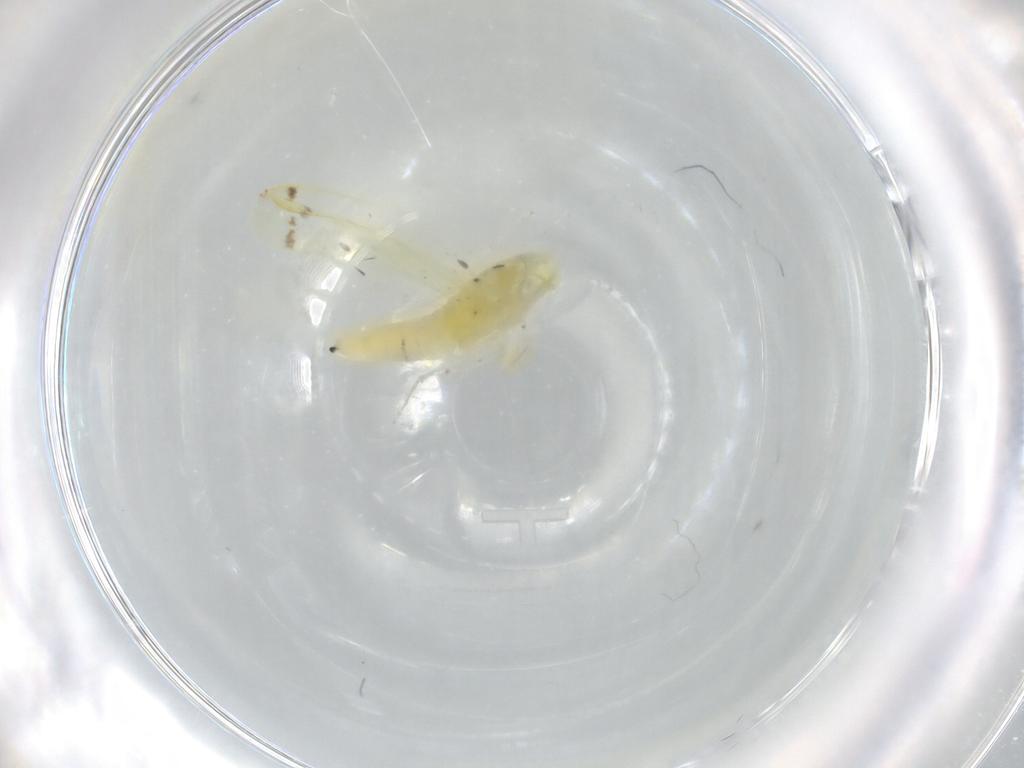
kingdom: Animalia
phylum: Arthropoda
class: Insecta
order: Hemiptera
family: Cicadellidae
